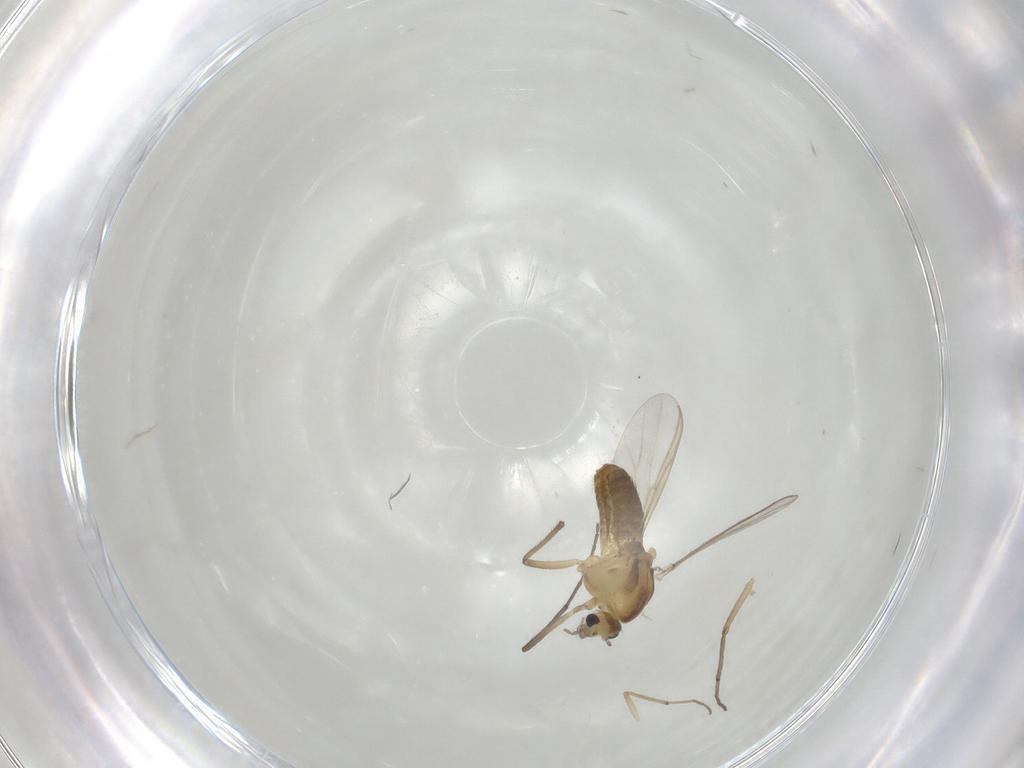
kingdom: Animalia
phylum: Arthropoda
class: Insecta
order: Diptera
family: Chironomidae
